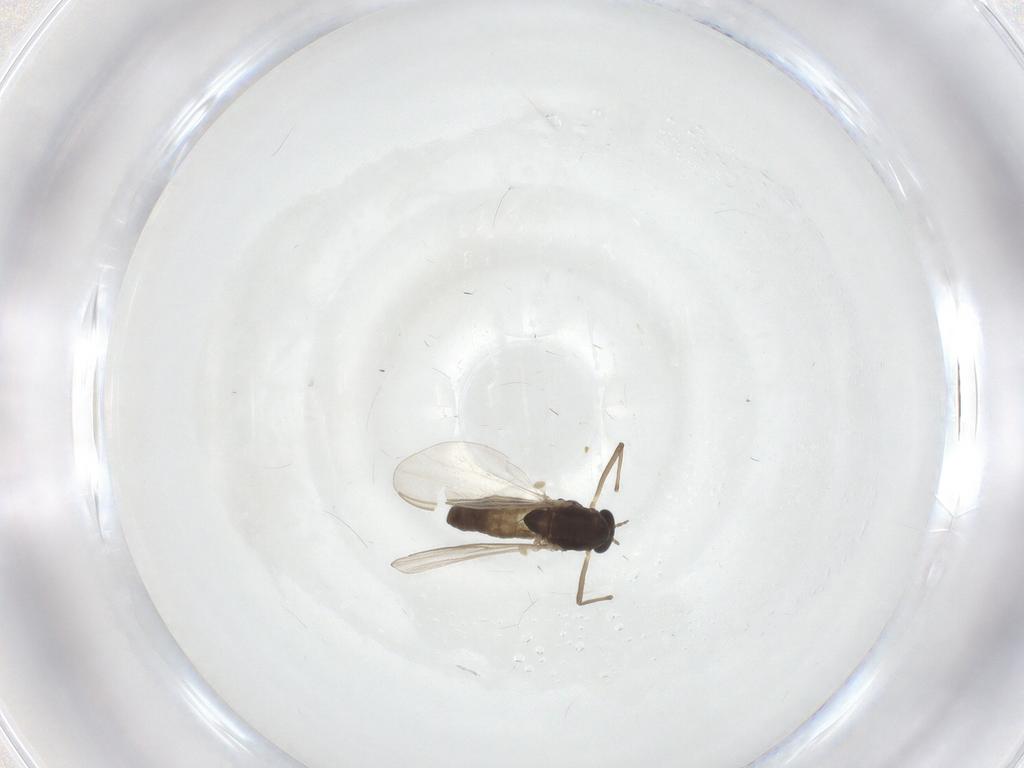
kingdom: Animalia
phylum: Arthropoda
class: Insecta
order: Diptera
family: Chironomidae
